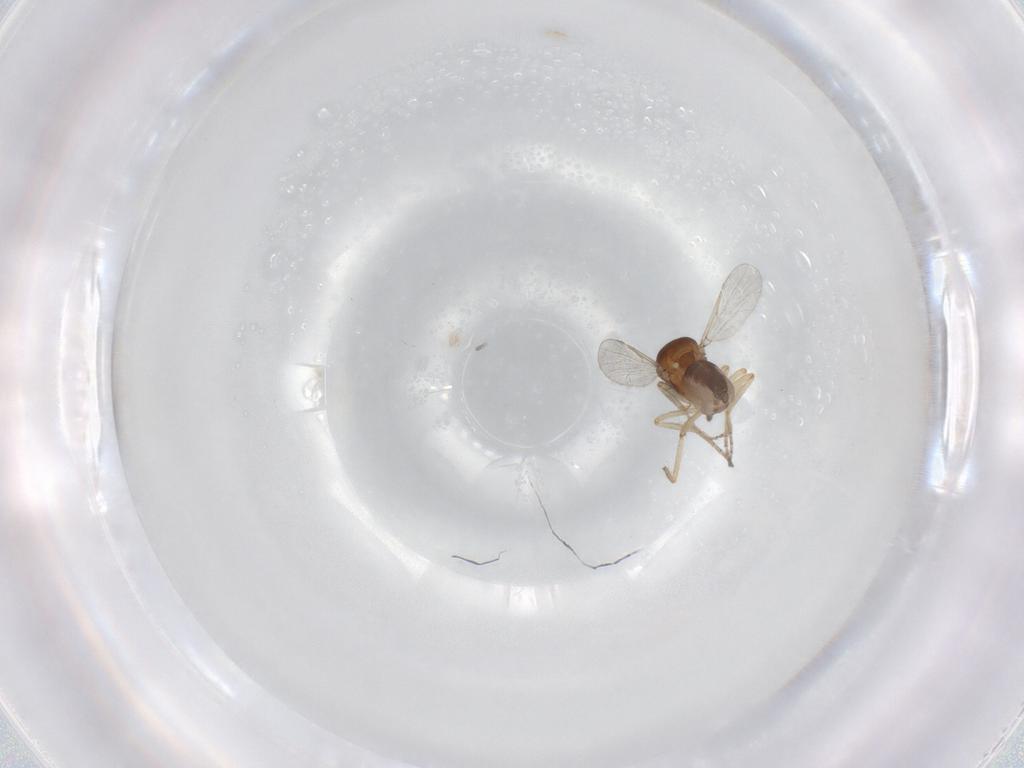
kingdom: Animalia
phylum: Arthropoda
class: Insecta
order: Diptera
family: Ceratopogonidae
